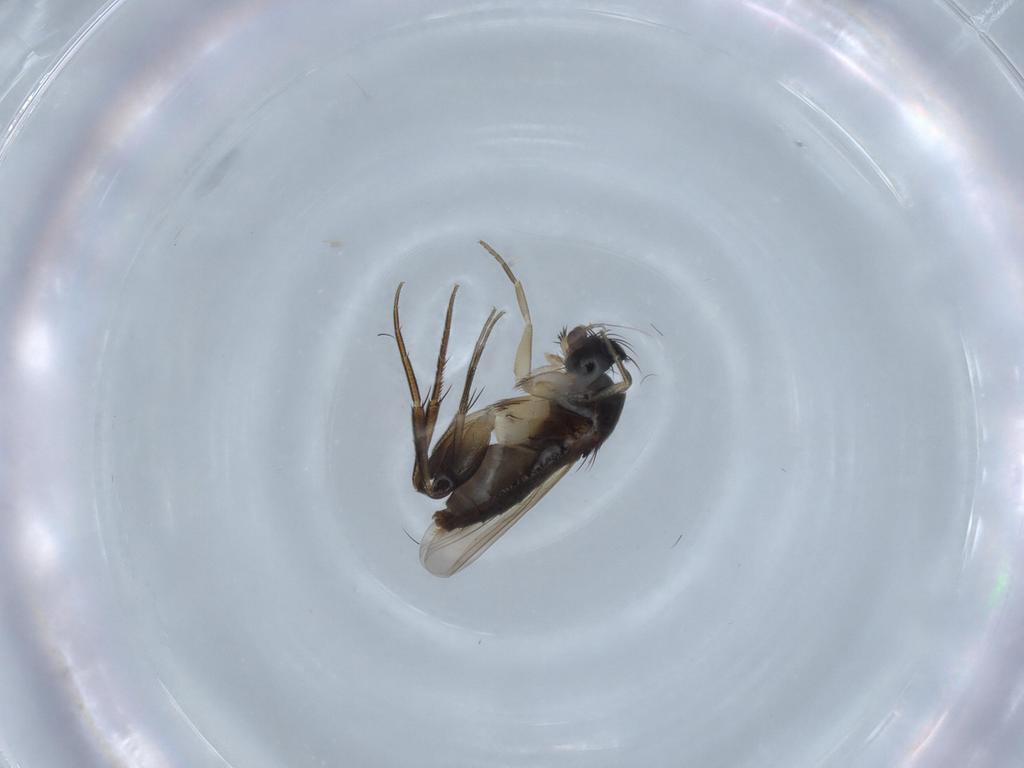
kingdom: Animalia
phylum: Arthropoda
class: Insecta
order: Diptera
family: Chironomidae
